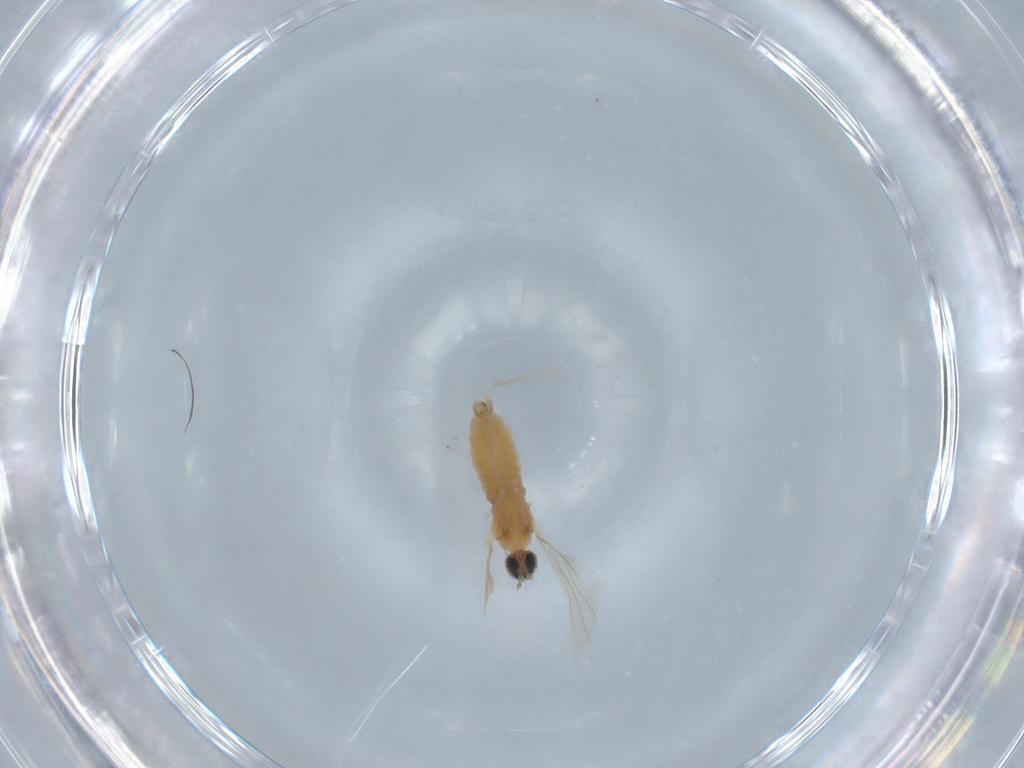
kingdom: Animalia
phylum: Arthropoda
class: Insecta
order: Diptera
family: Cecidomyiidae
